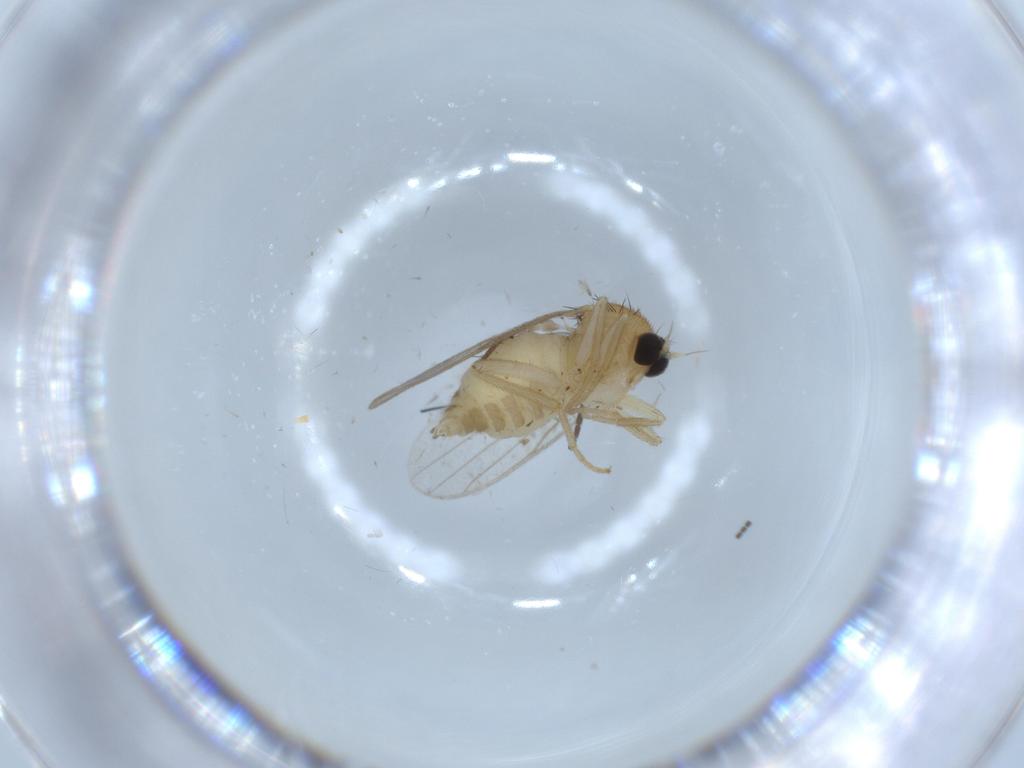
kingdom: Animalia
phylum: Arthropoda
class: Insecta
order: Diptera
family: Hybotidae
